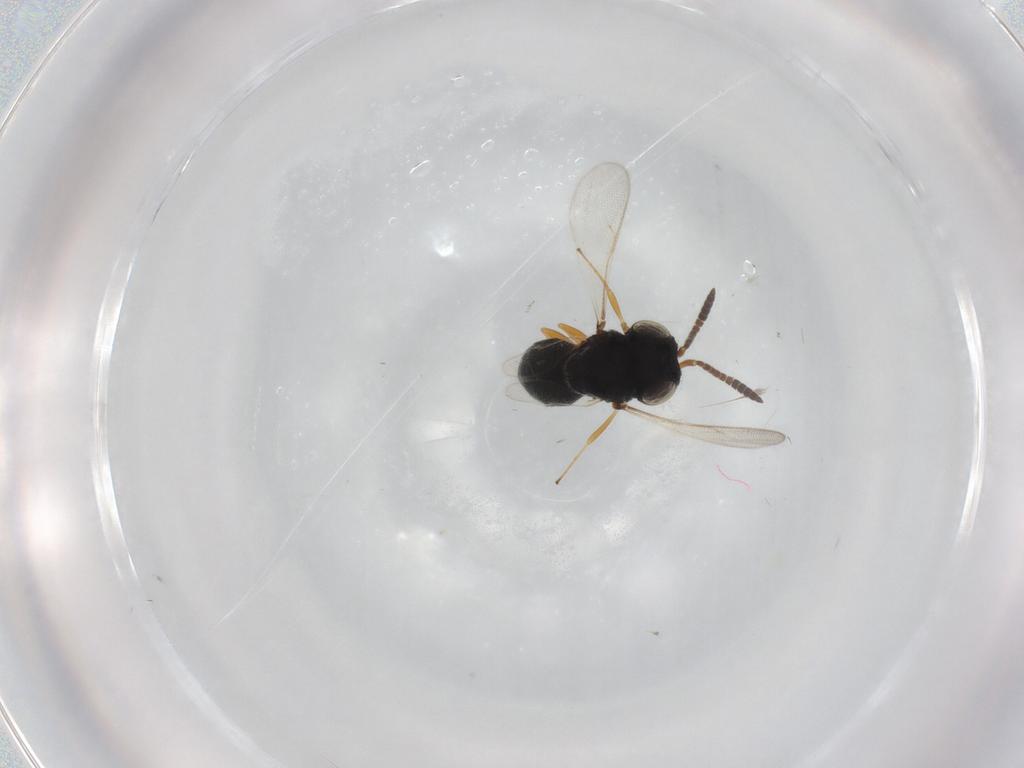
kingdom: Animalia
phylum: Arthropoda
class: Insecta
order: Hymenoptera
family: Scelionidae
